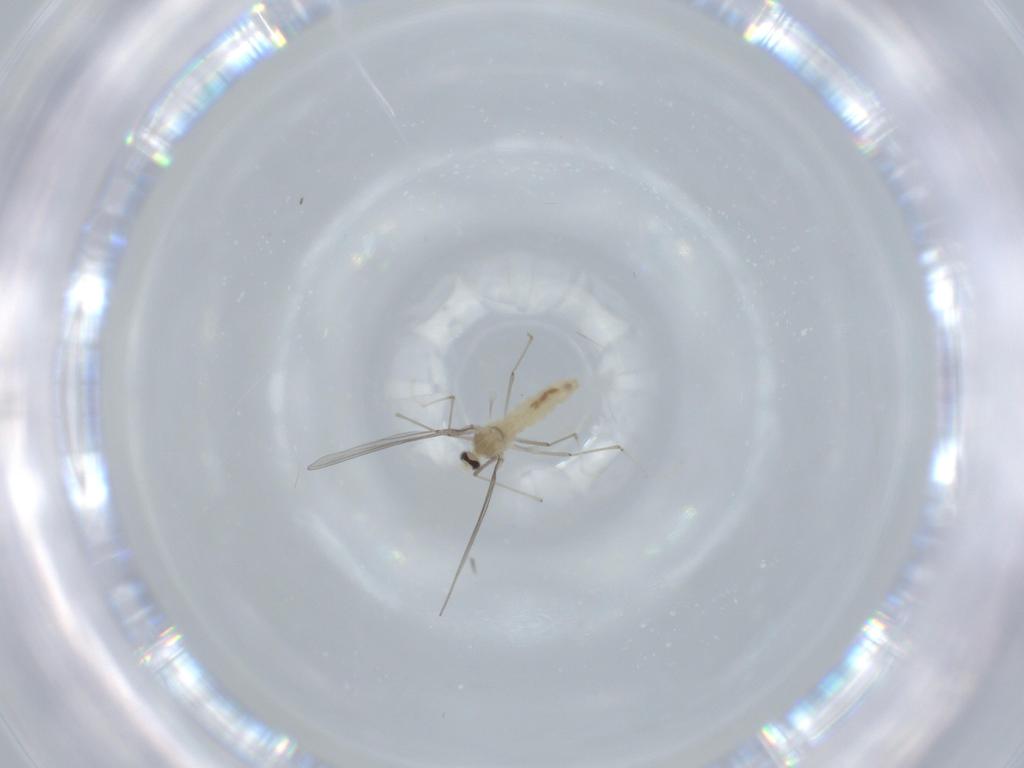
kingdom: Animalia
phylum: Arthropoda
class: Insecta
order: Diptera
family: Cecidomyiidae
